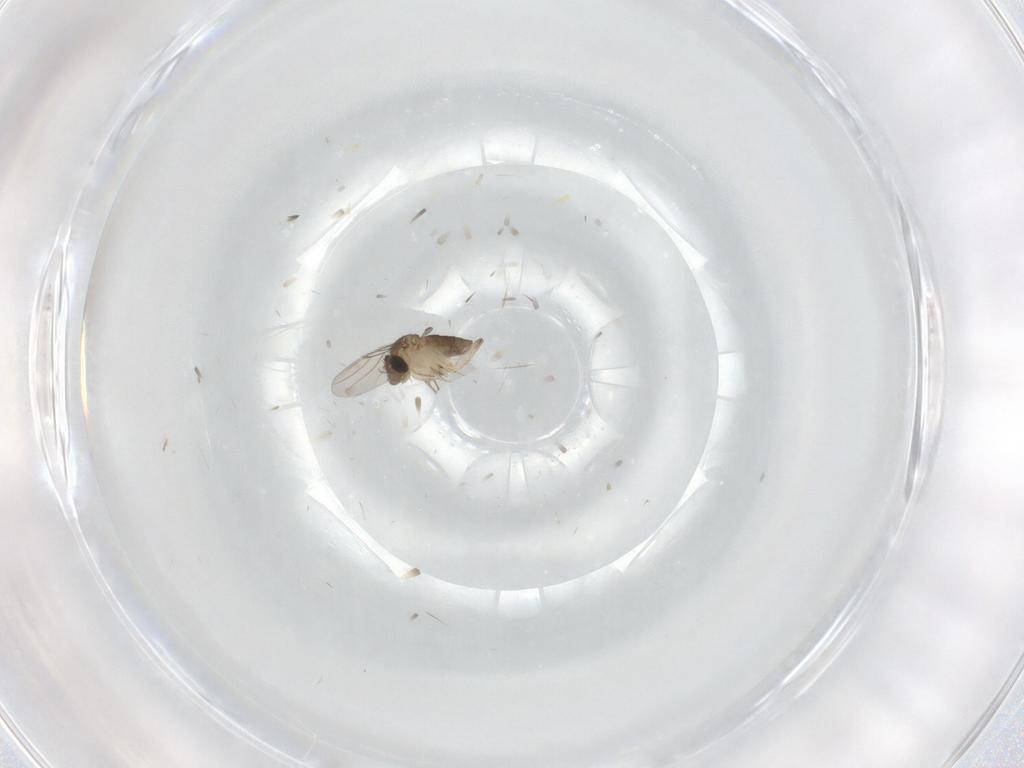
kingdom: Animalia
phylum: Arthropoda
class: Insecta
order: Diptera
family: Phoridae
